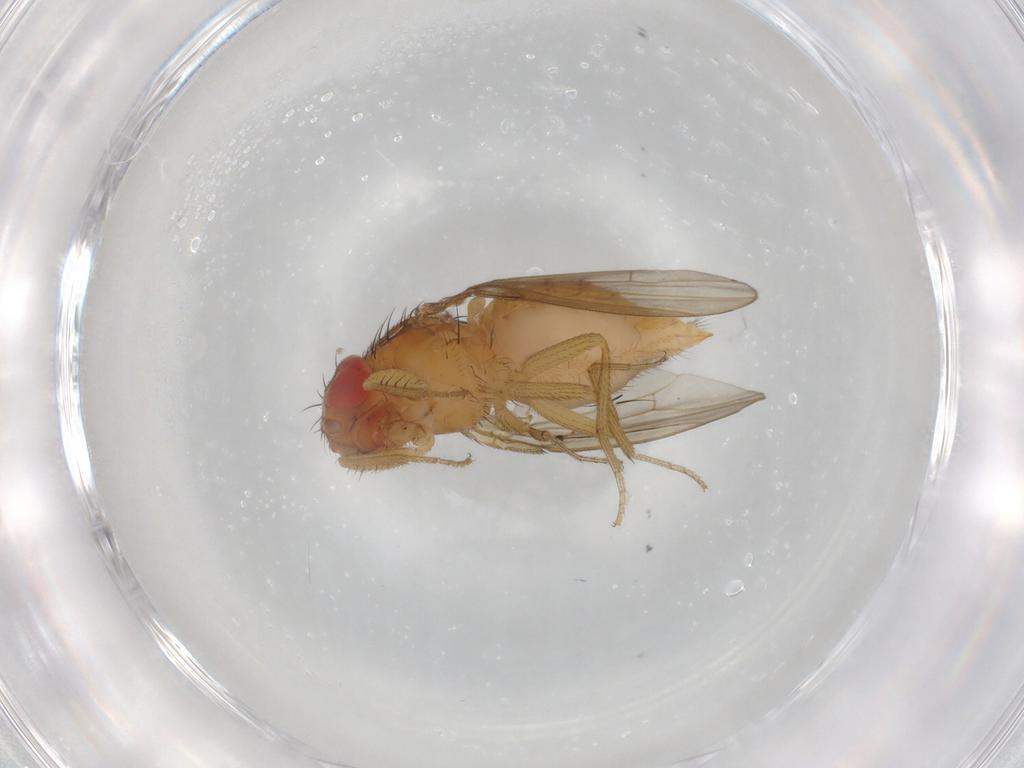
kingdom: Animalia
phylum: Arthropoda
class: Insecta
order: Diptera
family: Drosophilidae
